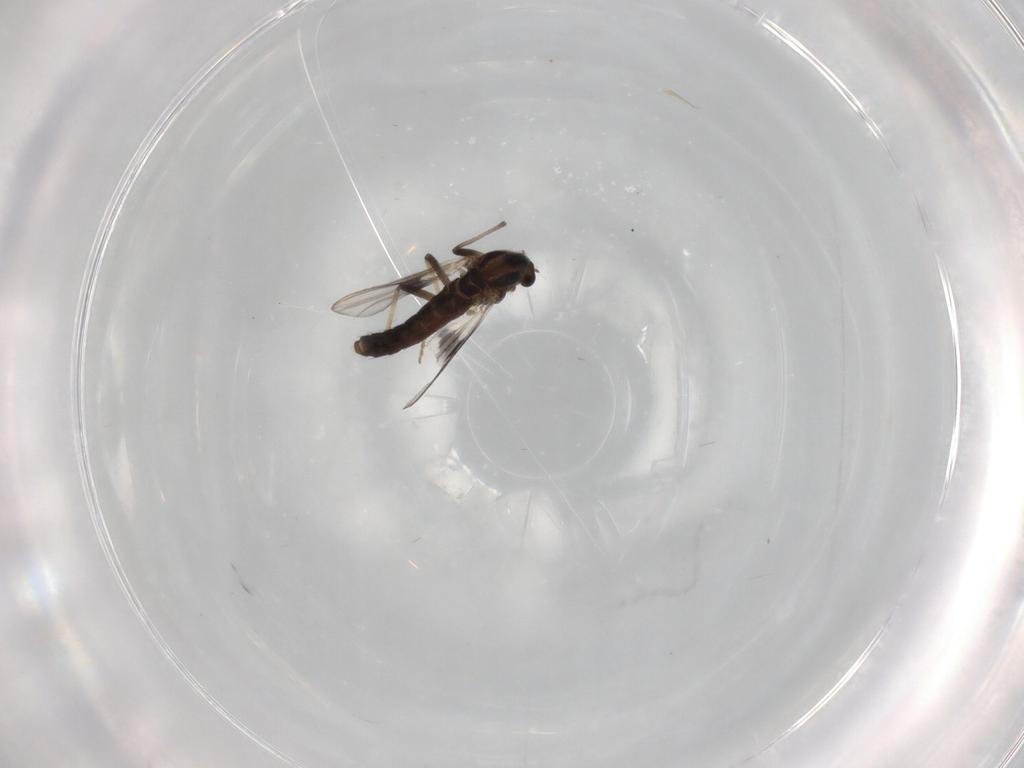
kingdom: Animalia
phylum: Arthropoda
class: Insecta
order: Diptera
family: Chironomidae
